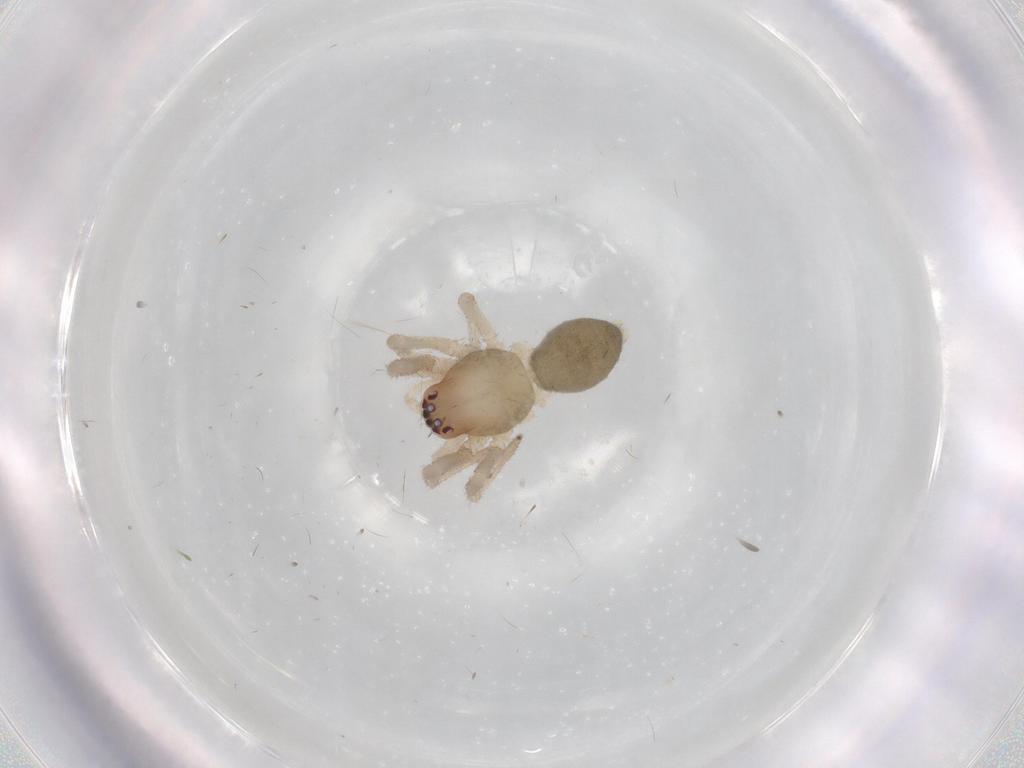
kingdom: Animalia
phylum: Arthropoda
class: Arachnida
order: Araneae
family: Trachelidae
